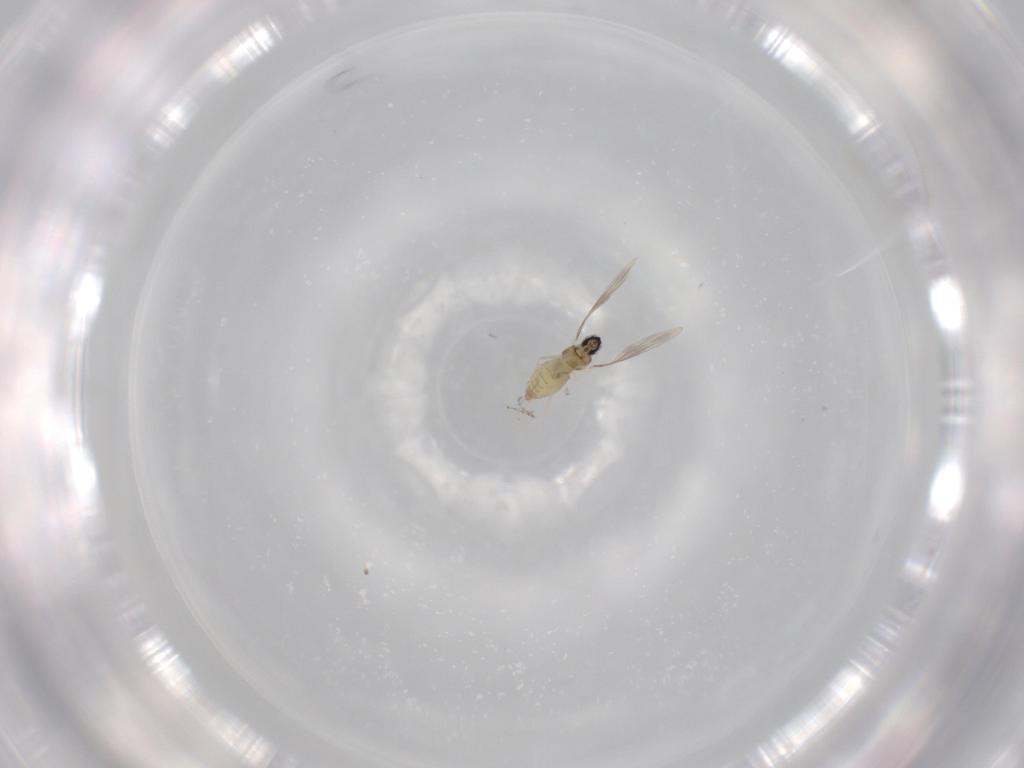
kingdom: Animalia
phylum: Arthropoda
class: Insecta
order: Diptera
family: Cecidomyiidae
